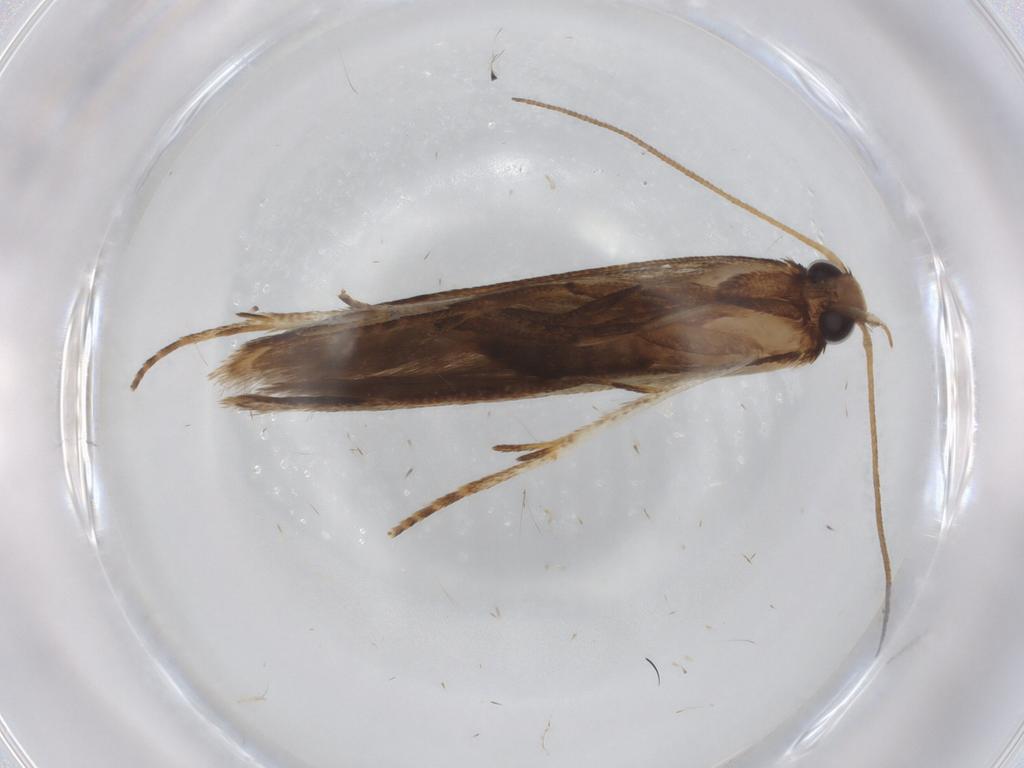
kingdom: Animalia
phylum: Arthropoda
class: Insecta
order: Lepidoptera
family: Gelechiidae
